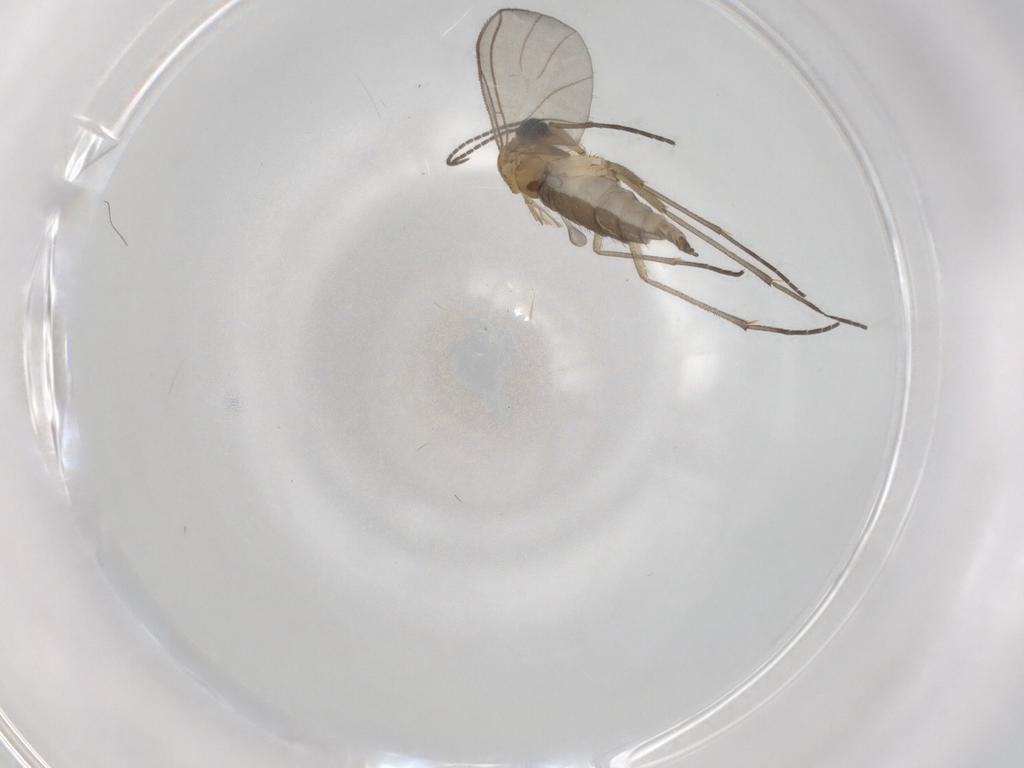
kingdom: Animalia
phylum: Arthropoda
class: Insecta
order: Diptera
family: Sciaridae
